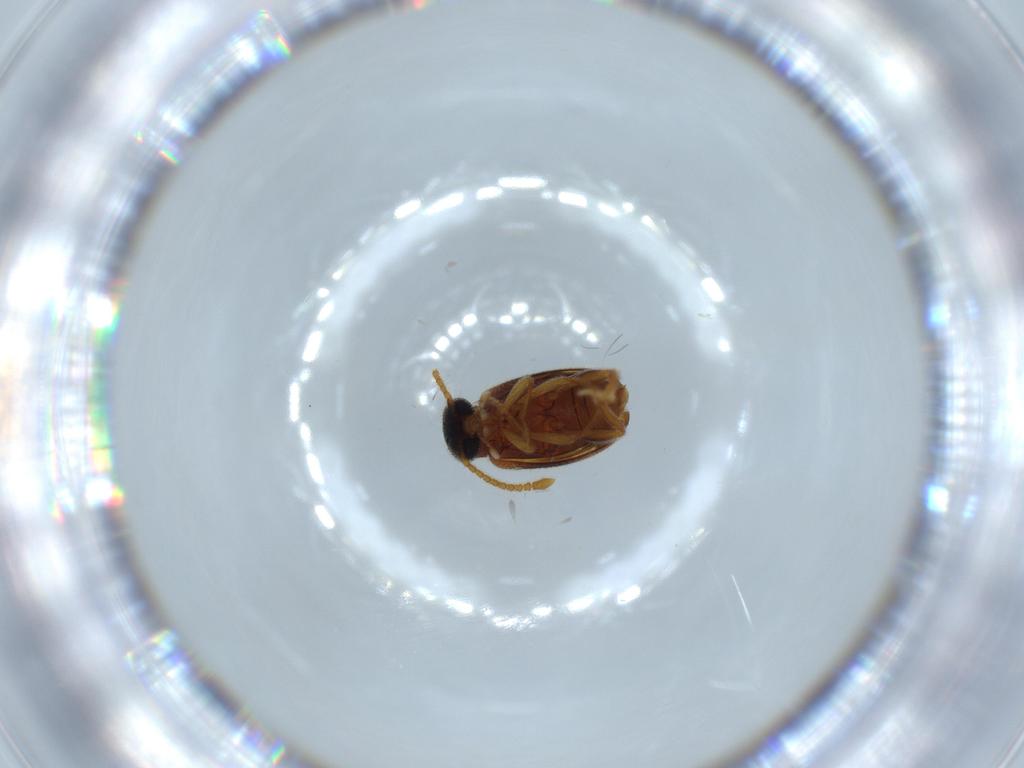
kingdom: Animalia
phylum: Arthropoda
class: Insecta
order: Coleoptera
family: Aderidae
